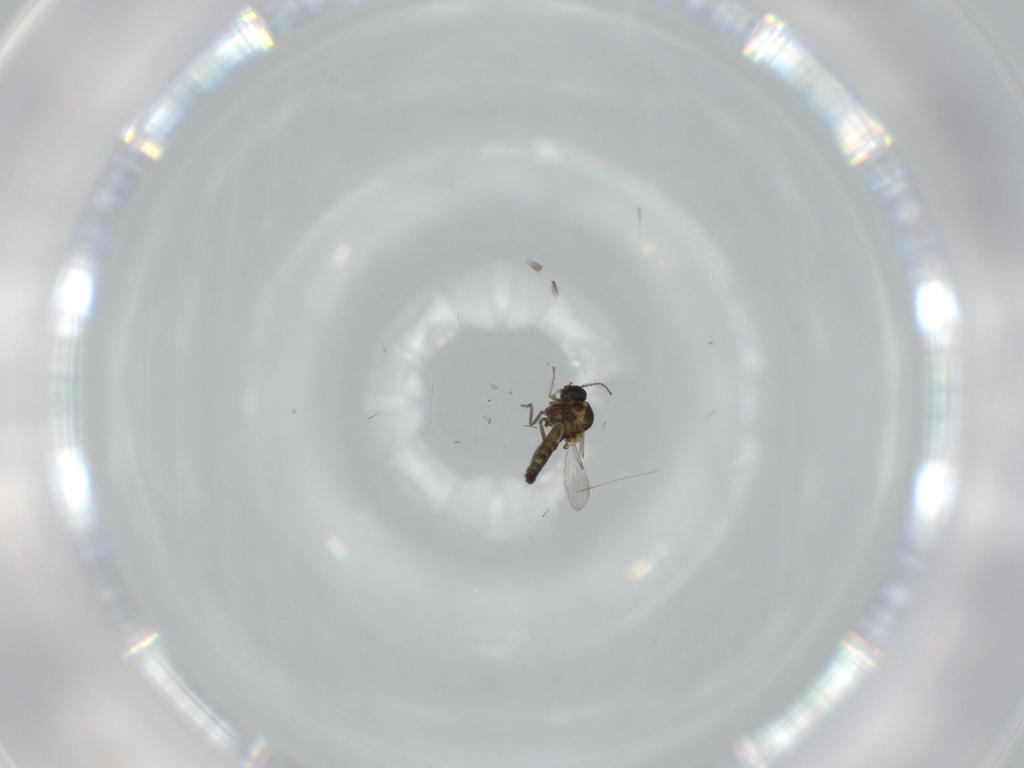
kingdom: Animalia
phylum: Arthropoda
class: Insecta
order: Diptera
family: Ceratopogonidae
